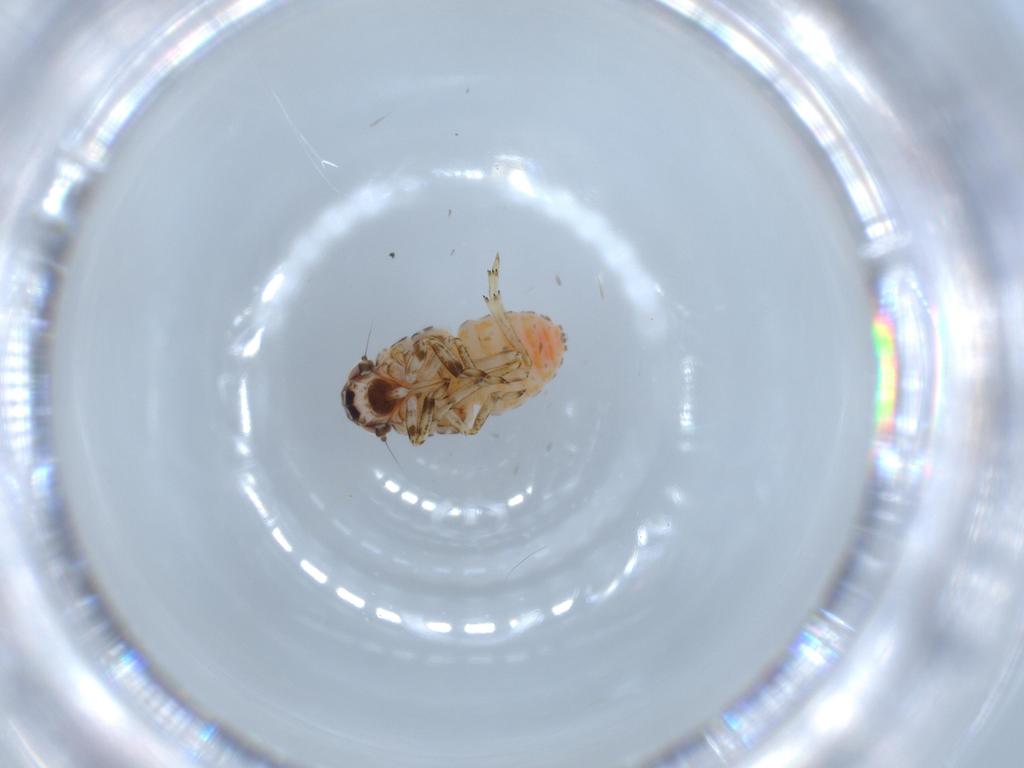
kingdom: Animalia
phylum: Arthropoda
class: Insecta
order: Hemiptera
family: Issidae
